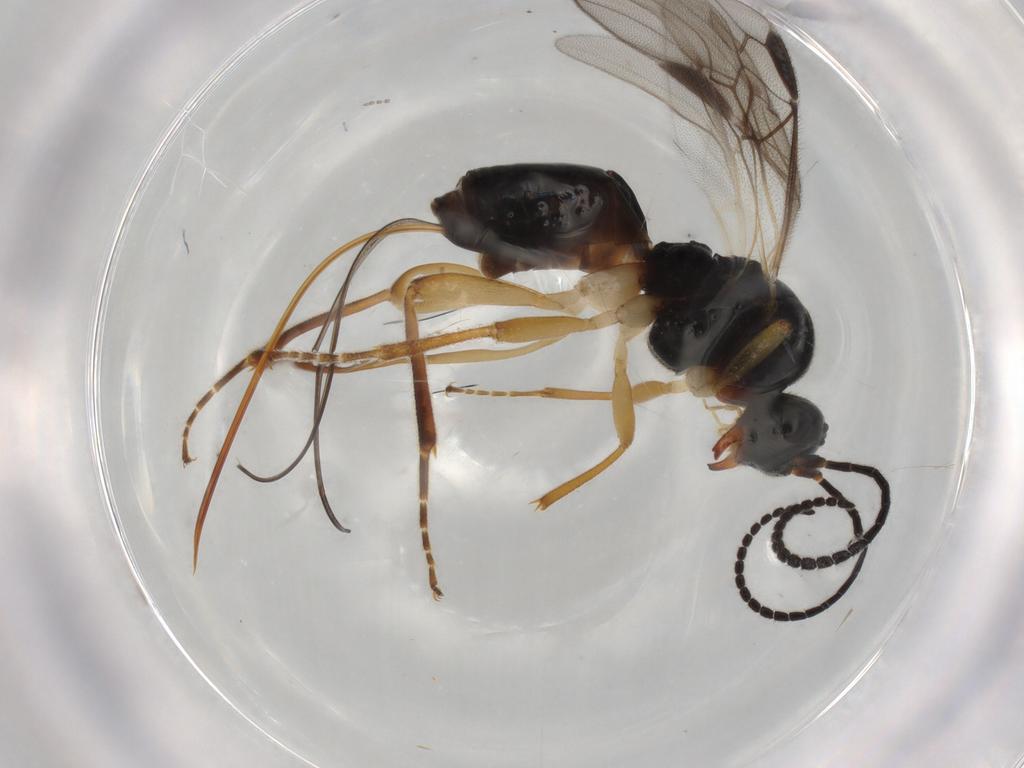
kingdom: Animalia
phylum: Arthropoda
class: Insecta
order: Hymenoptera
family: Braconidae
